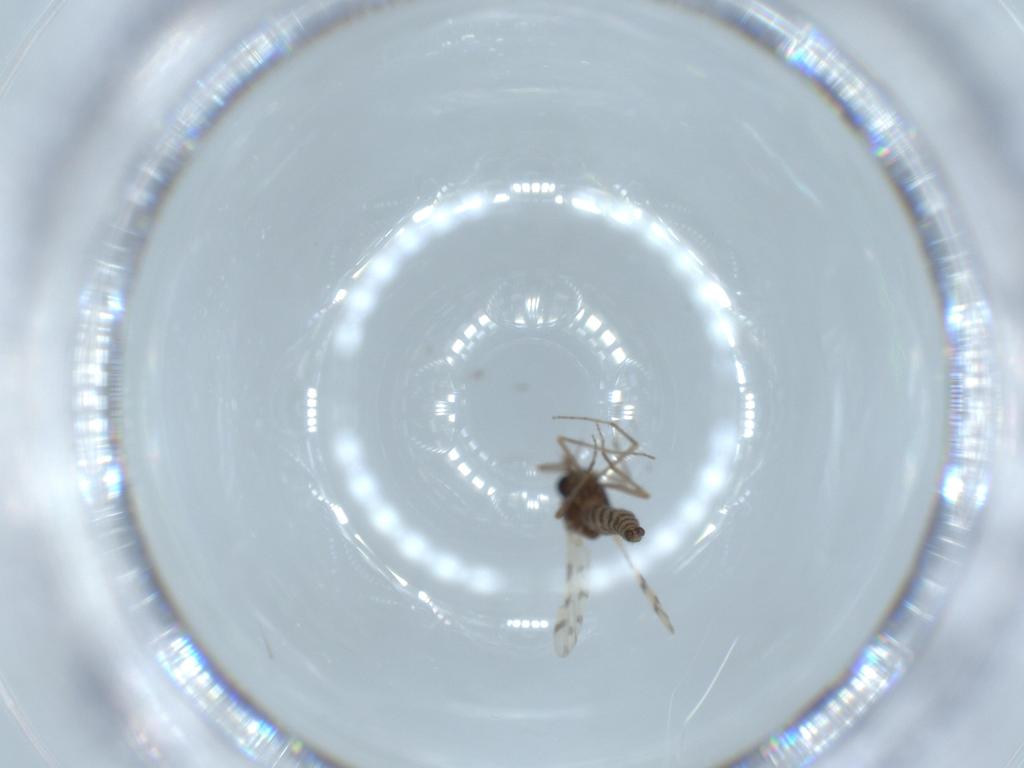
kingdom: Animalia
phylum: Arthropoda
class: Insecta
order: Diptera
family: Ceratopogonidae
